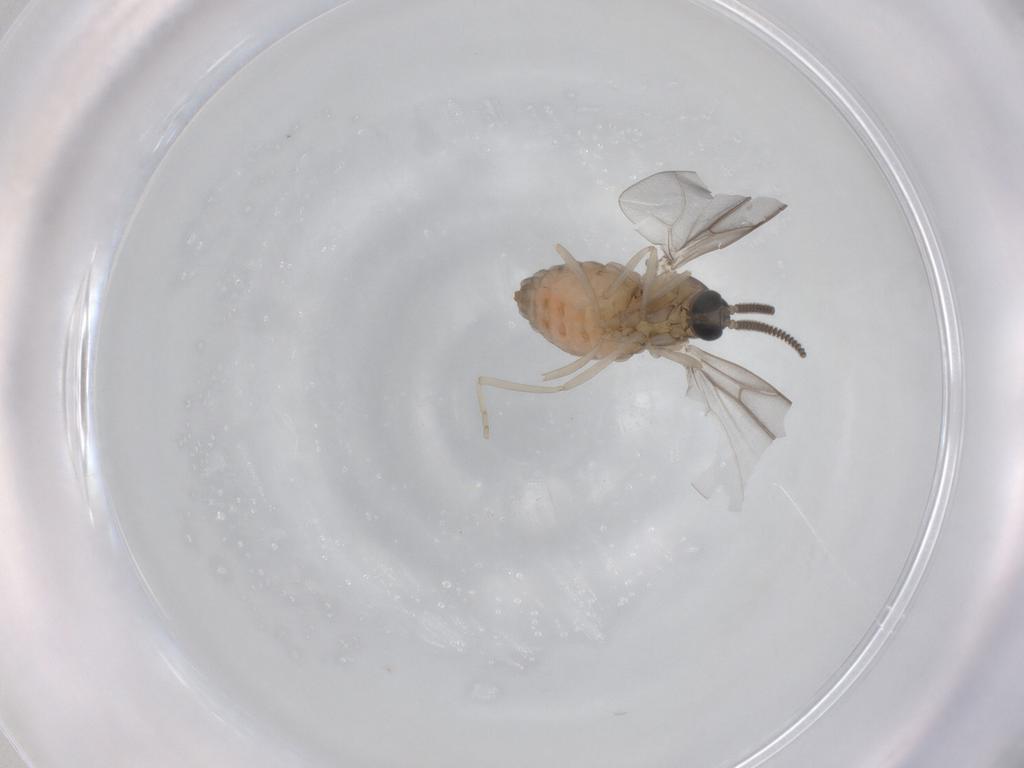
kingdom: Animalia
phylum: Arthropoda
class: Insecta
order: Diptera
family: Cecidomyiidae
